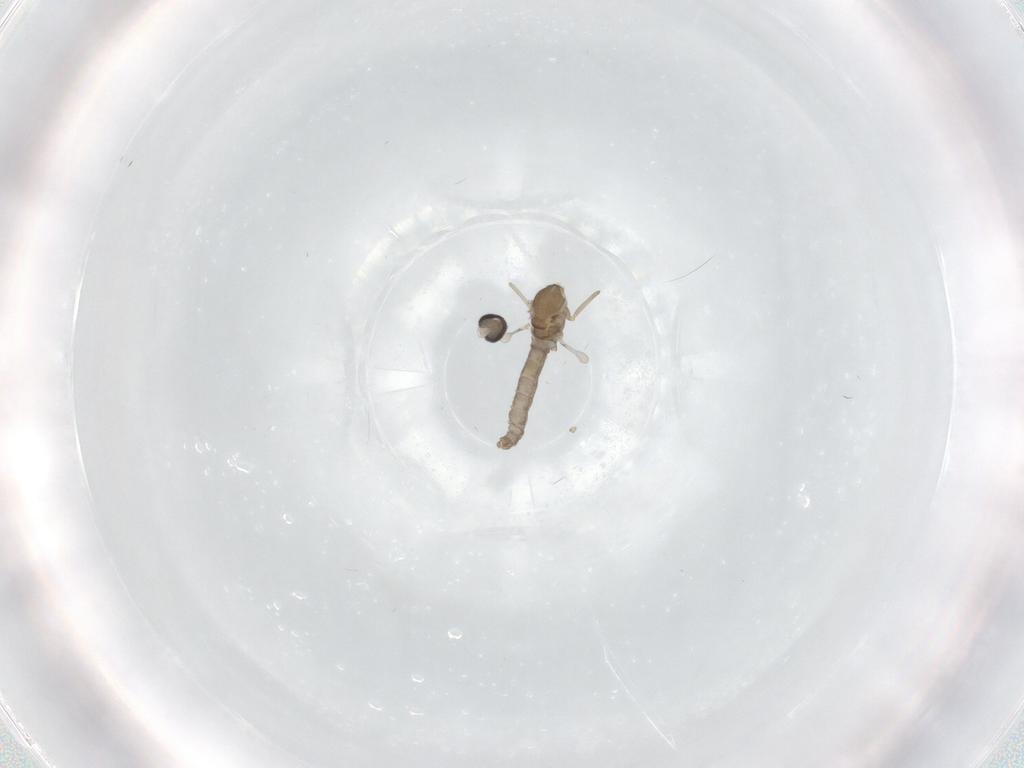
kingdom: Animalia
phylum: Arthropoda
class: Insecta
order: Diptera
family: Cecidomyiidae
